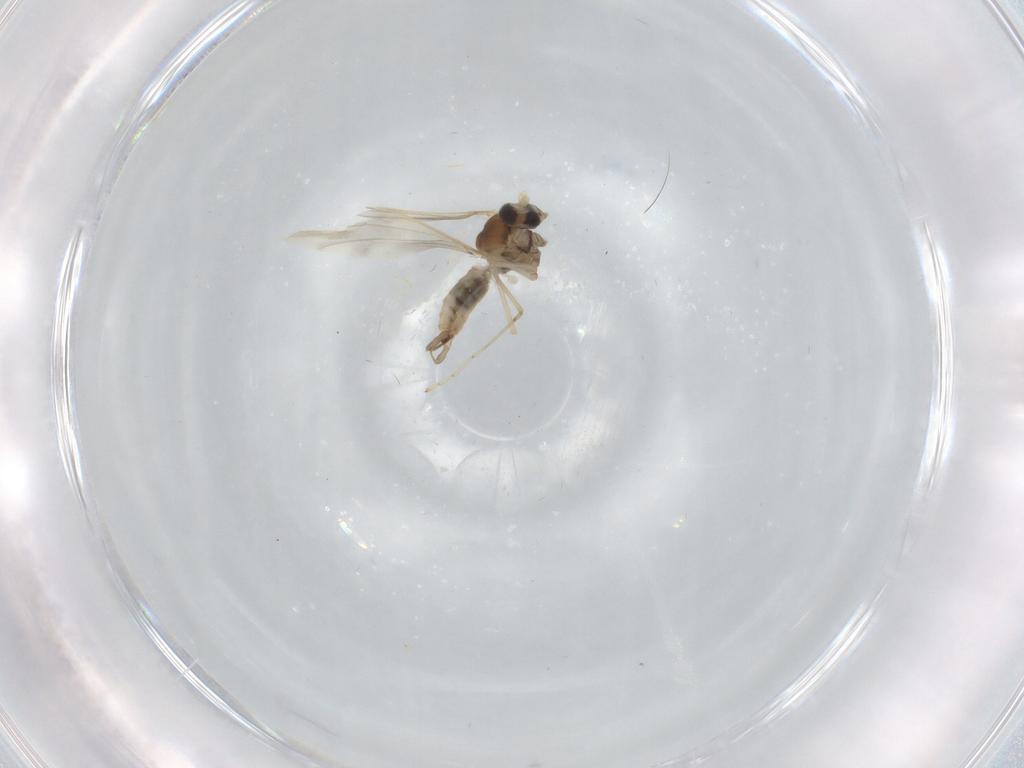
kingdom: Animalia
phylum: Arthropoda
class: Insecta
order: Diptera
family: Cecidomyiidae
